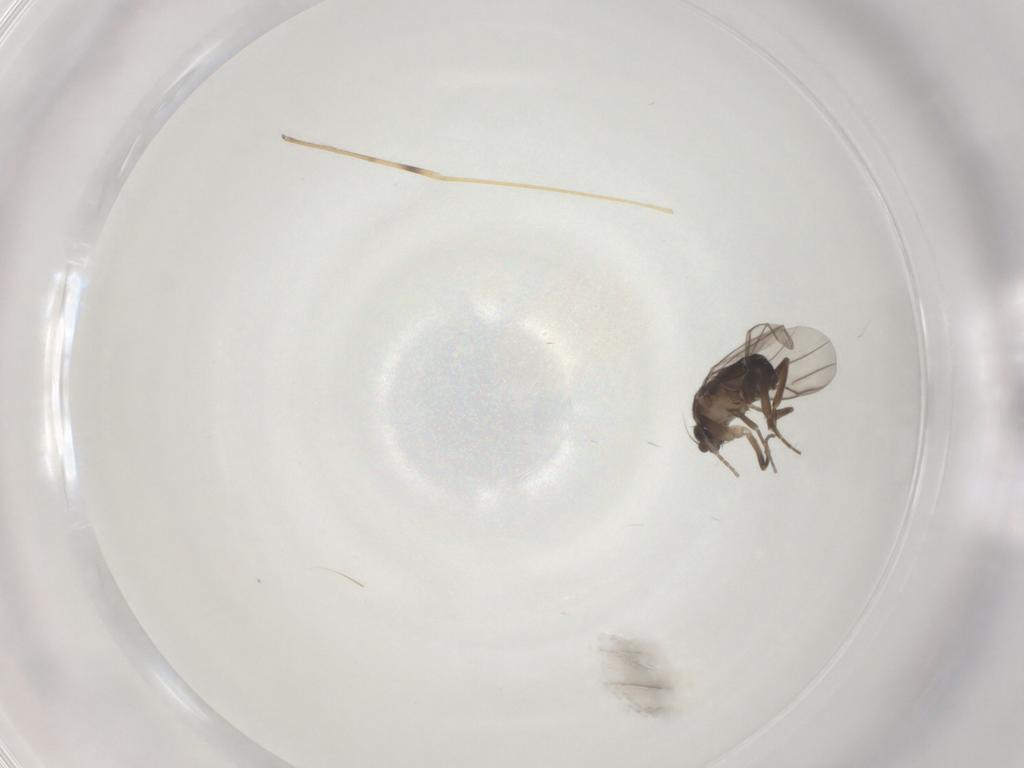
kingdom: Animalia
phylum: Arthropoda
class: Insecta
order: Diptera
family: Limoniidae
